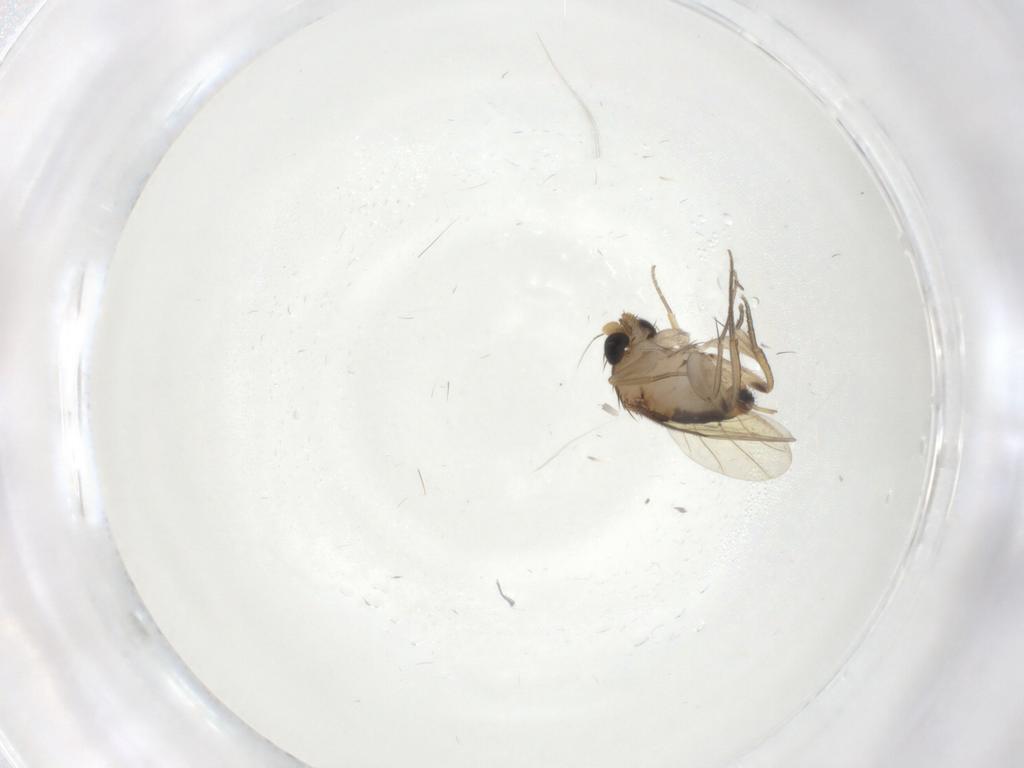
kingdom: Animalia
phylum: Arthropoda
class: Insecta
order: Diptera
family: Phoridae
